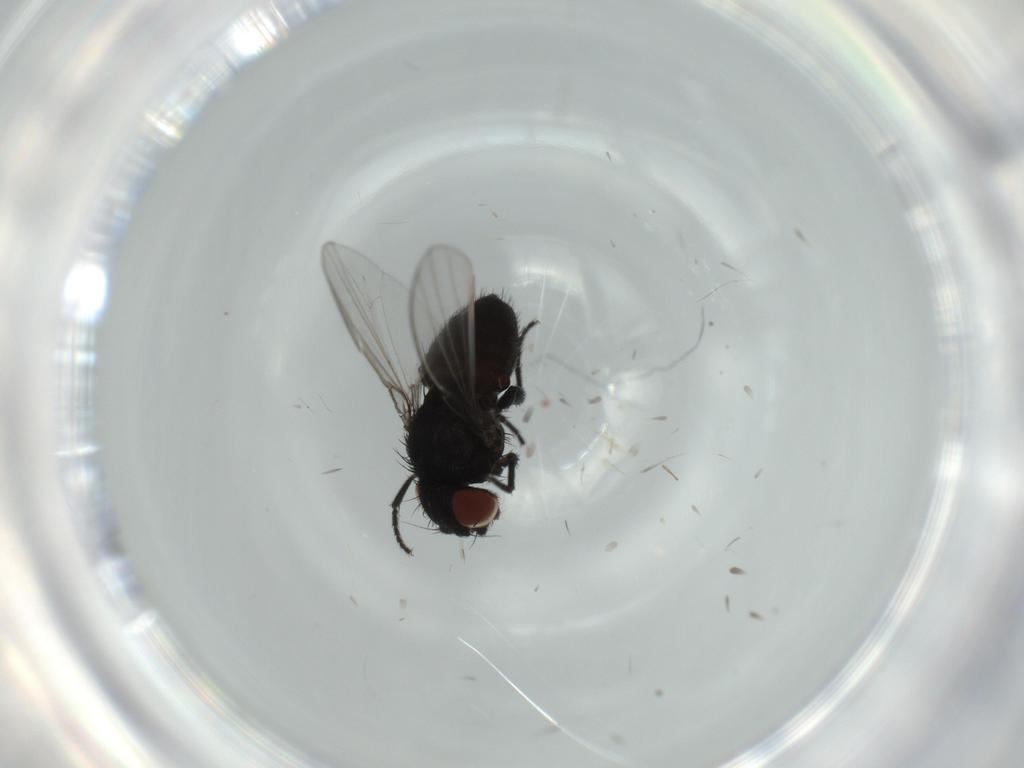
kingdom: Animalia
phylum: Arthropoda
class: Insecta
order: Diptera
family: Milichiidae
